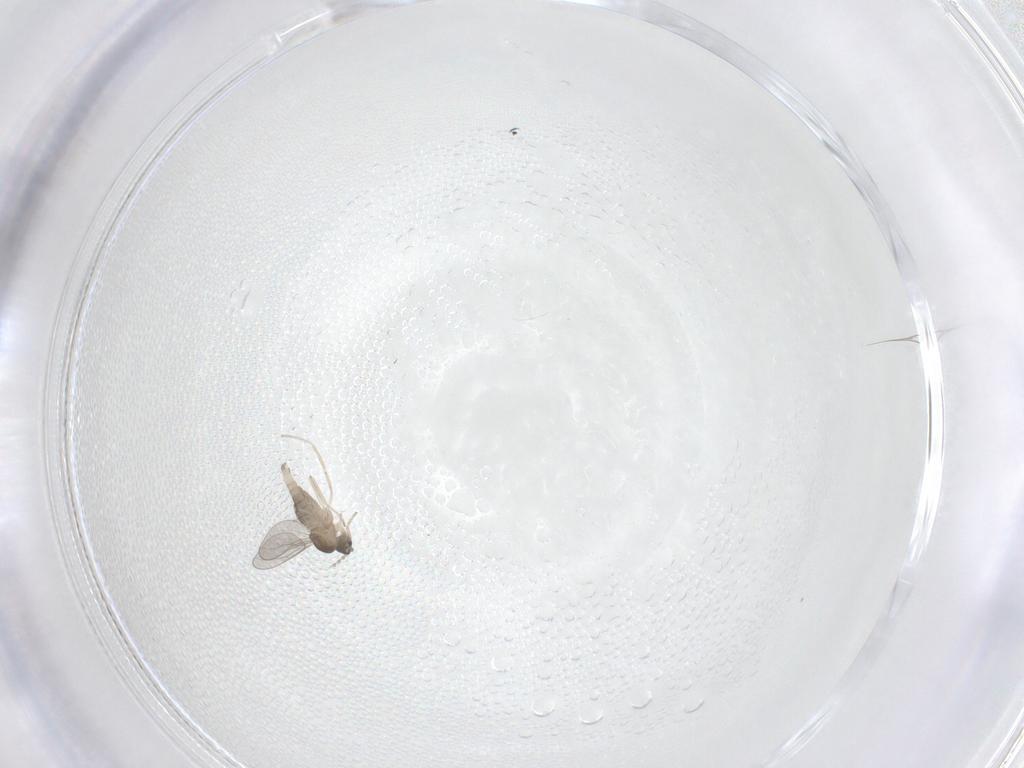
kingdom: Animalia
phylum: Arthropoda
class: Insecta
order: Diptera
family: Cecidomyiidae
